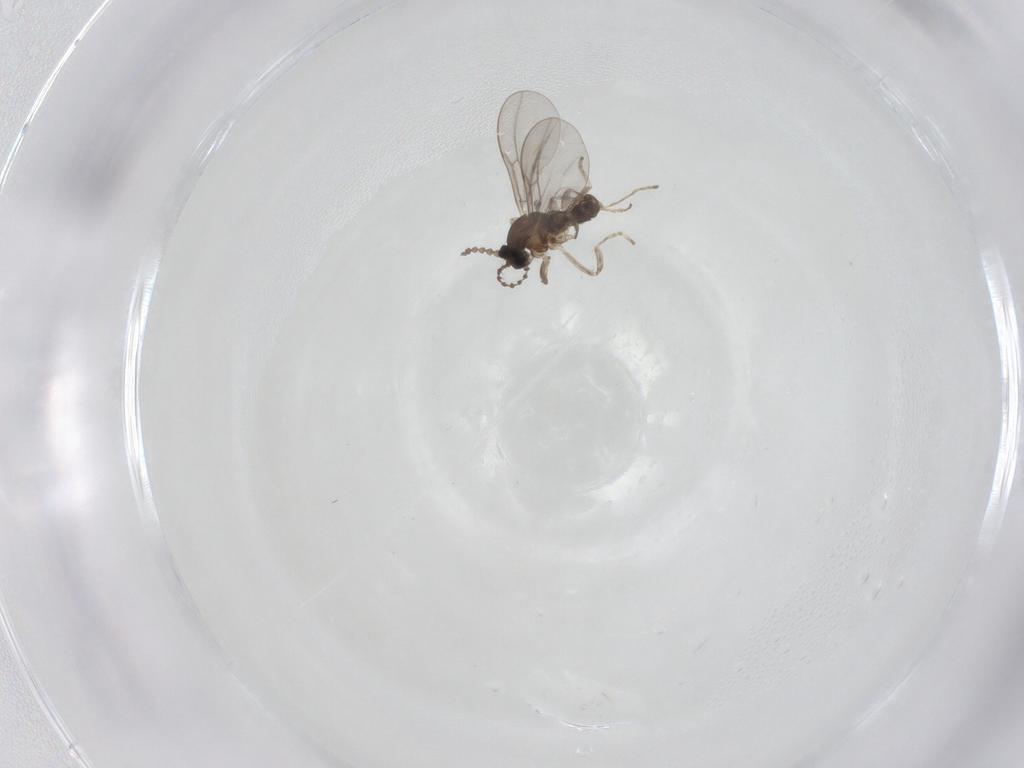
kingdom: Animalia
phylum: Arthropoda
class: Insecta
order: Diptera
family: Cecidomyiidae
